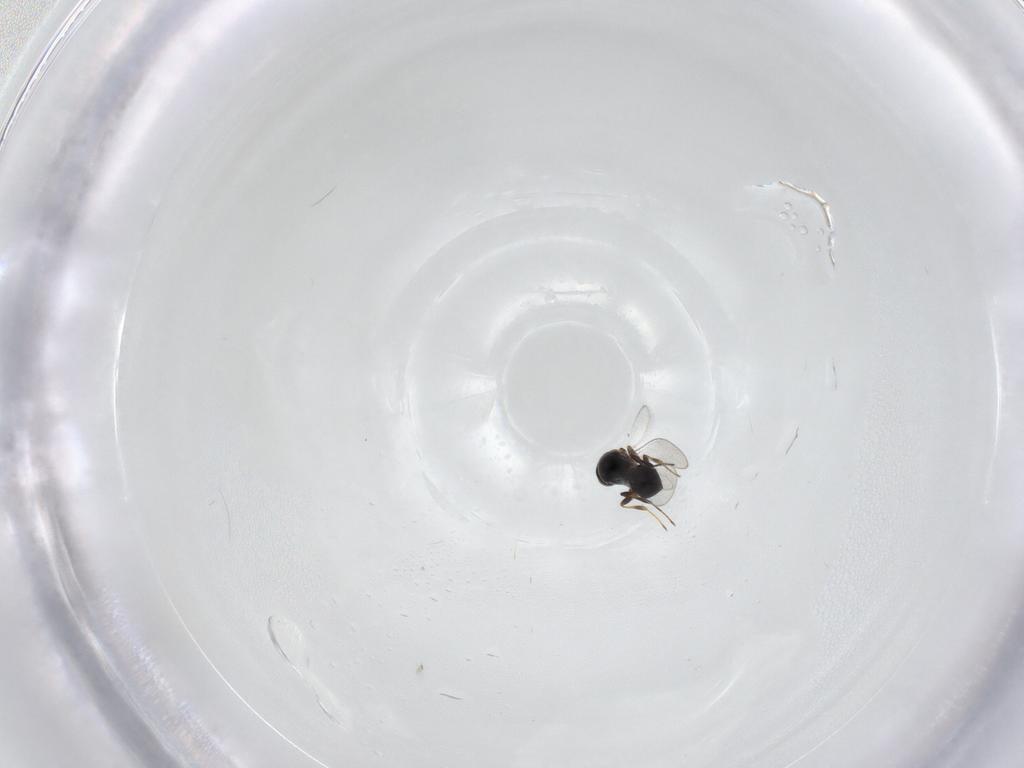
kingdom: Animalia
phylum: Arthropoda
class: Insecta
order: Hymenoptera
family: Platygastridae
